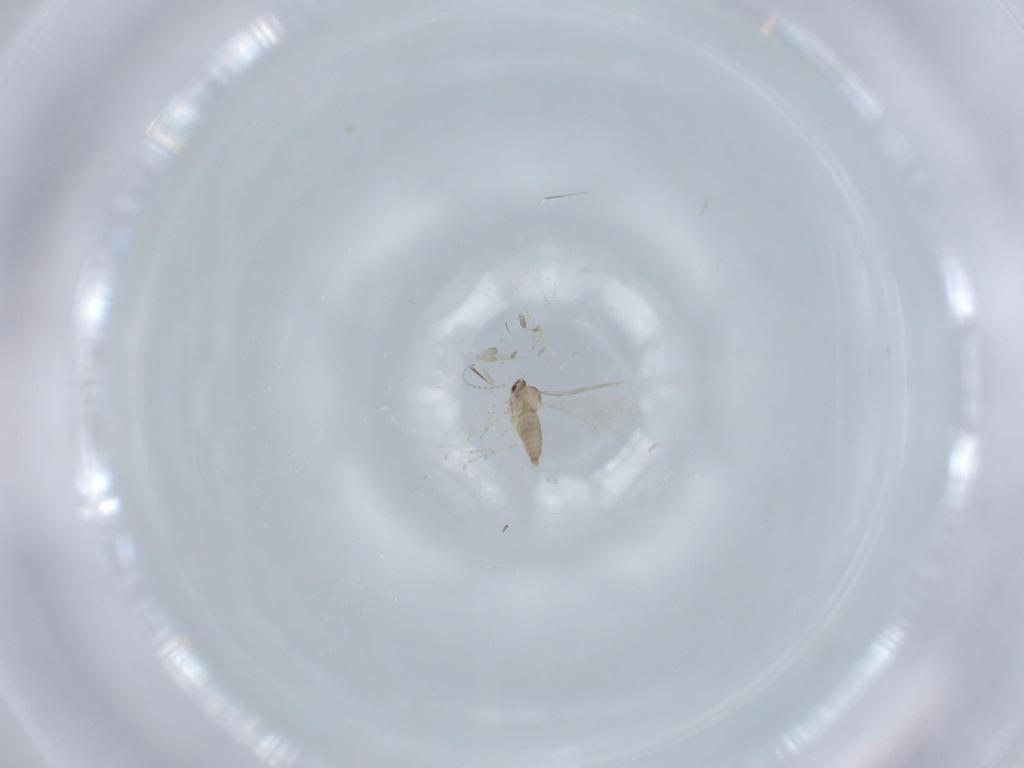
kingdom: Animalia
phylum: Arthropoda
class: Insecta
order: Diptera
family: Cecidomyiidae
